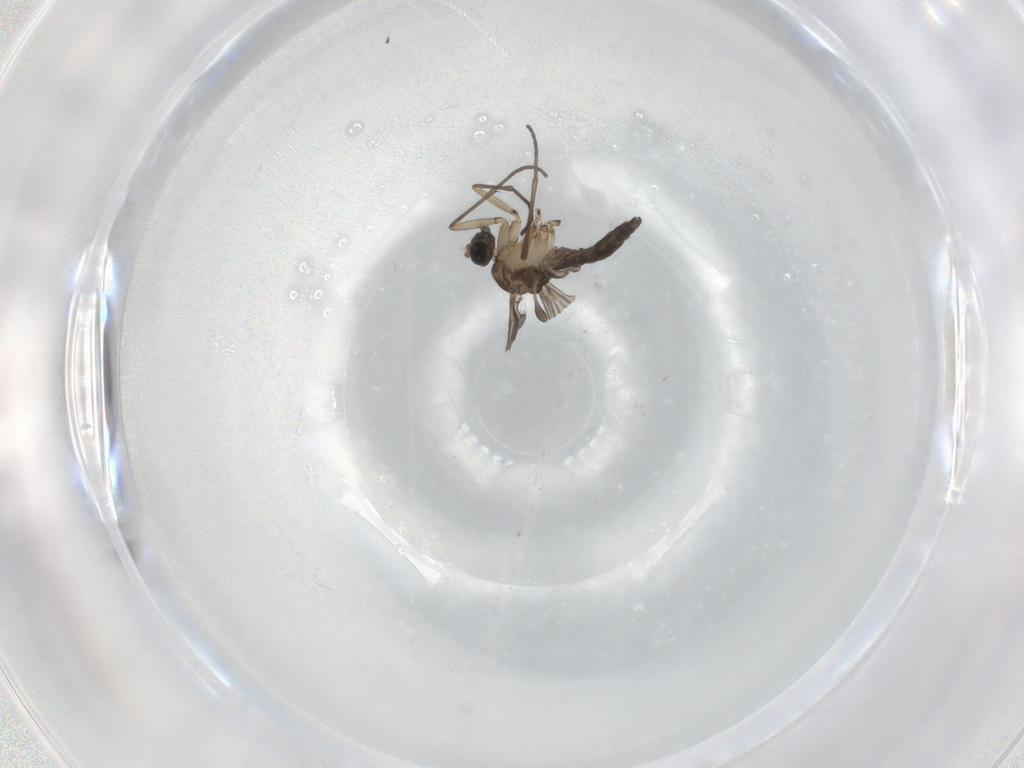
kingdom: Animalia
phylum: Arthropoda
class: Insecta
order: Diptera
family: Sciaridae
